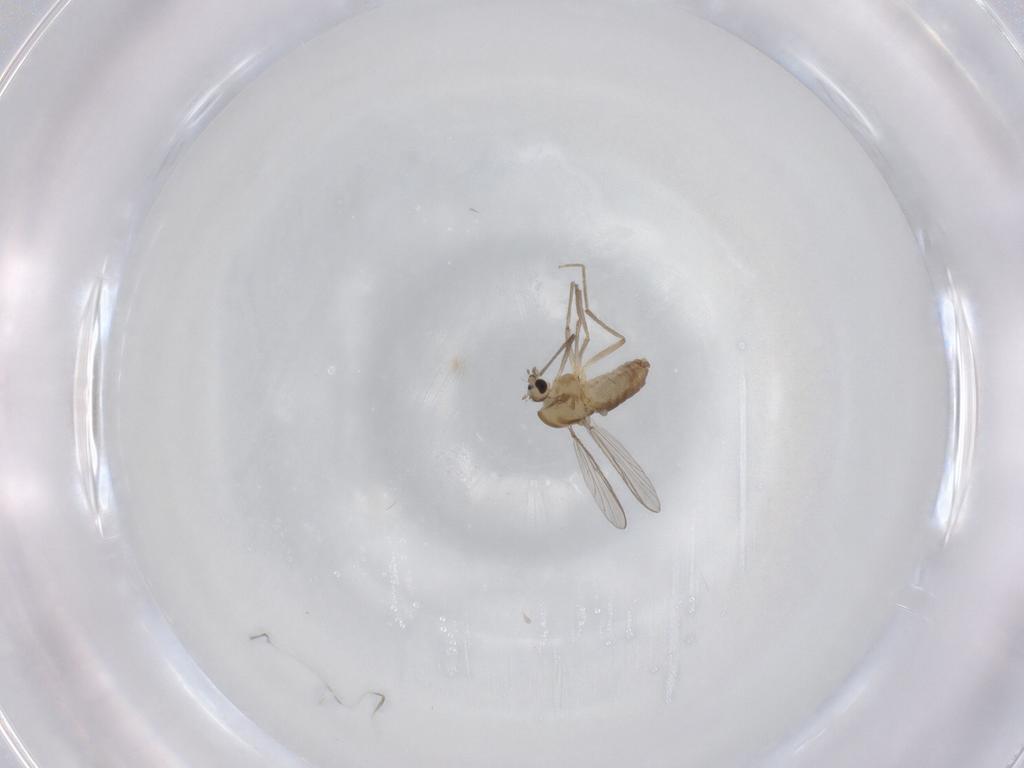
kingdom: Animalia
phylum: Arthropoda
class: Insecta
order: Diptera
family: Chironomidae
